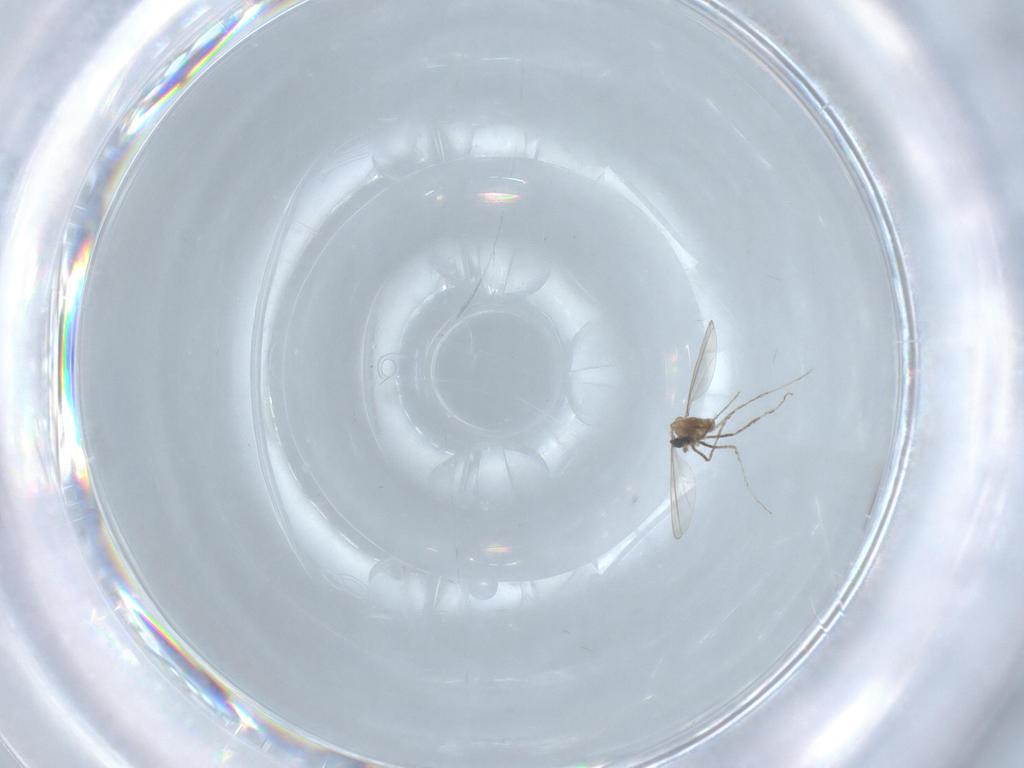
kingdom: Animalia
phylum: Arthropoda
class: Insecta
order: Diptera
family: Cecidomyiidae
